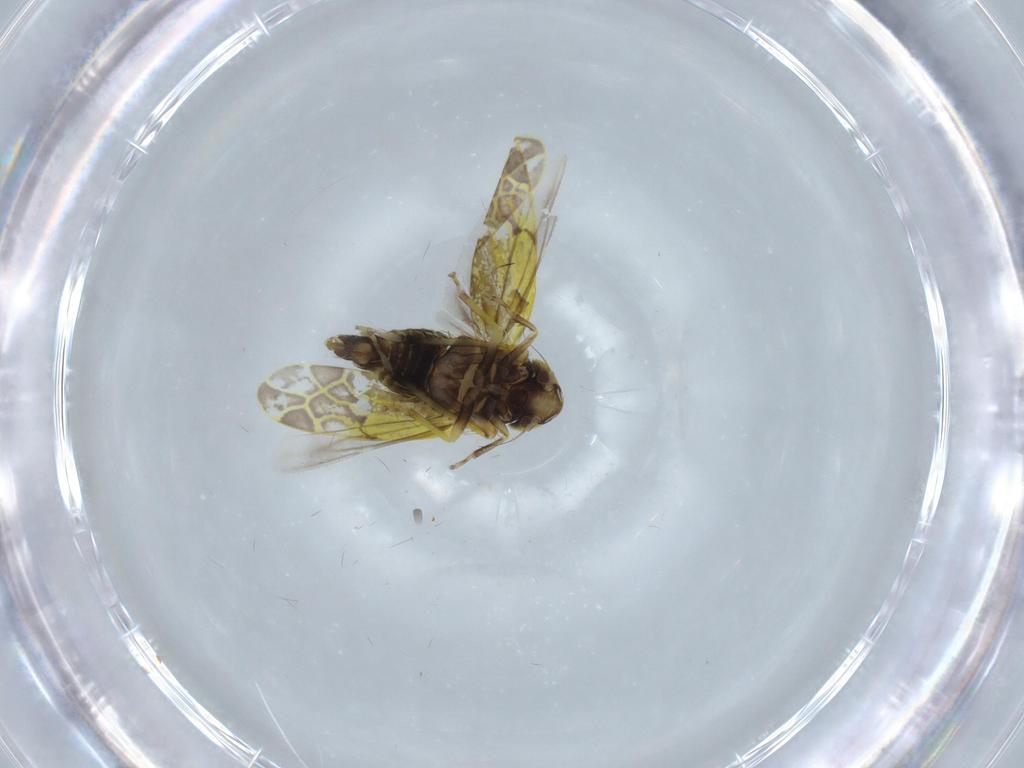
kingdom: Animalia
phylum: Arthropoda
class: Insecta
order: Hemiptera
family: Cicadellidae
